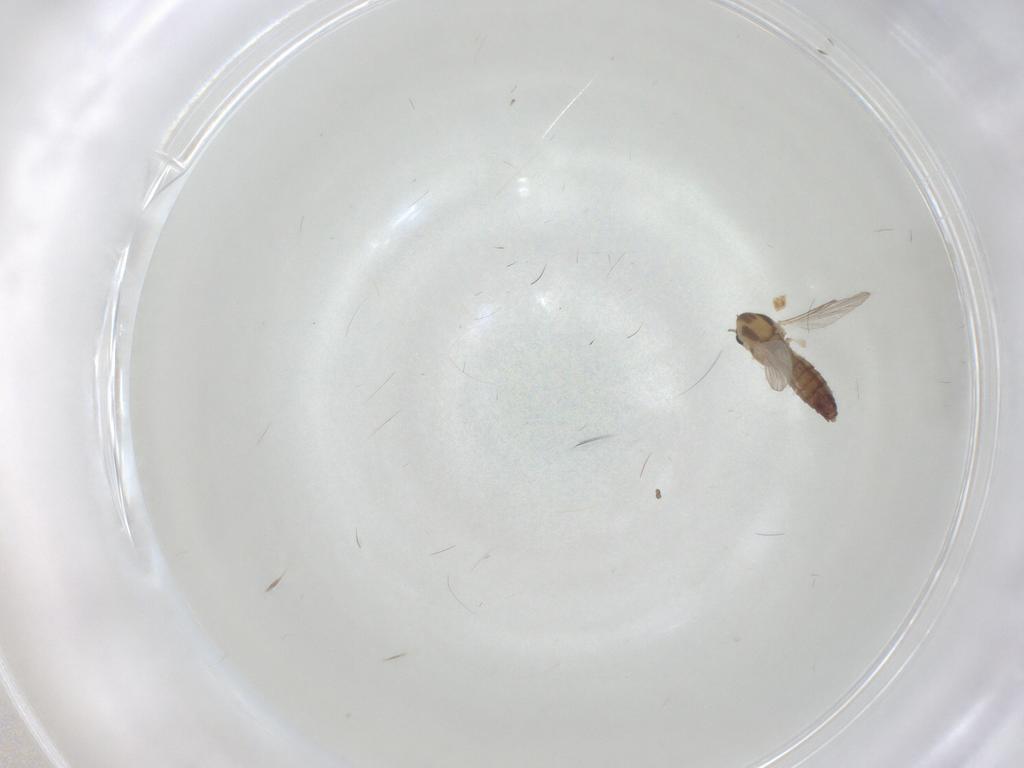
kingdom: Animalia
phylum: Arthropoda
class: Insecta
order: Diptera
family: Chironomidae
